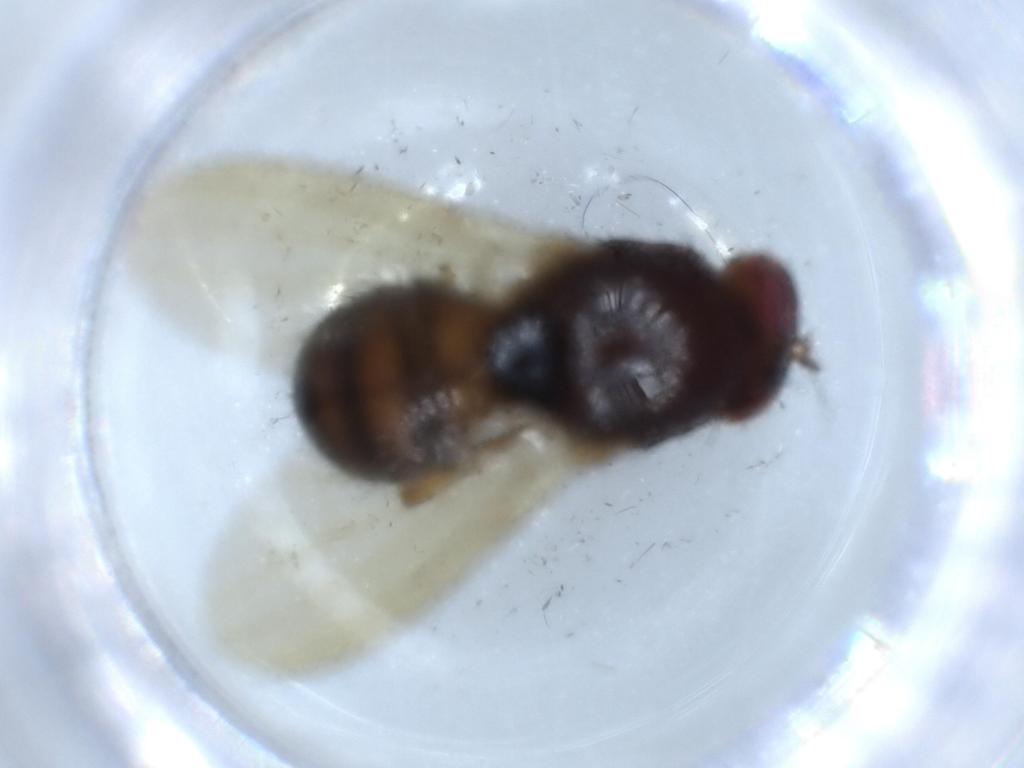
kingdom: Animalia
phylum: Arthropoda
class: Insecta
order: Diptera
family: Lauxaniidae
